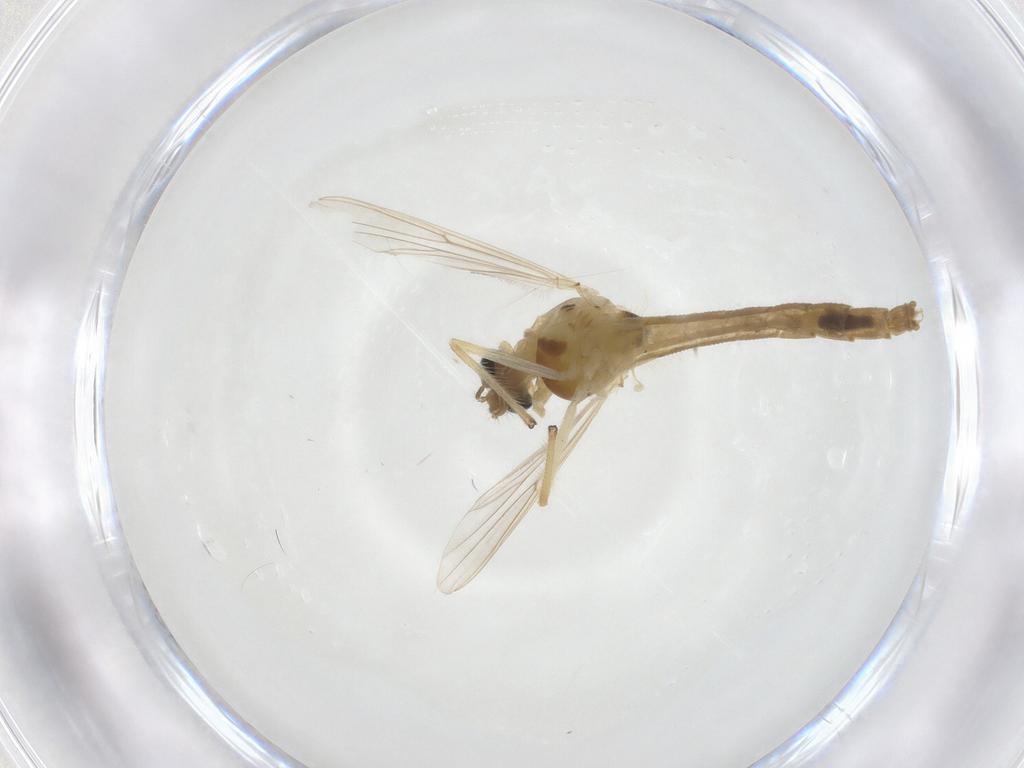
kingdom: Animalia
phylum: Arthropoda
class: Insecta
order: Diptera
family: Chironomidae
